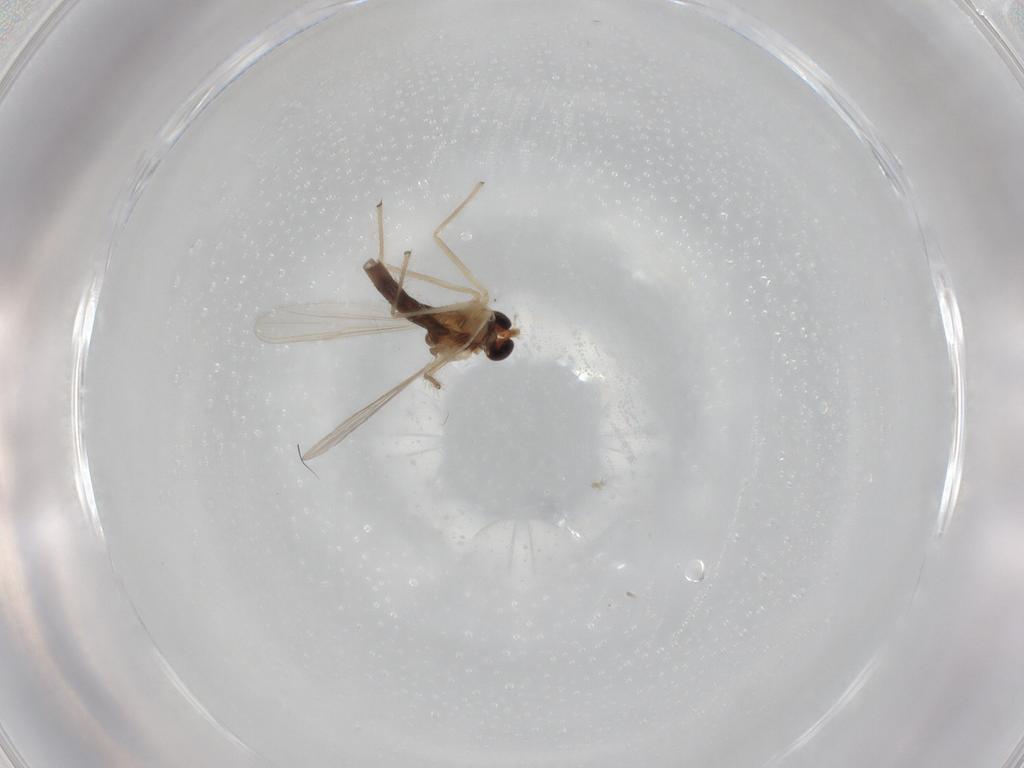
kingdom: Animalia
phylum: Arthropoda
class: Insecta
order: Diptera
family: Chironomidae
